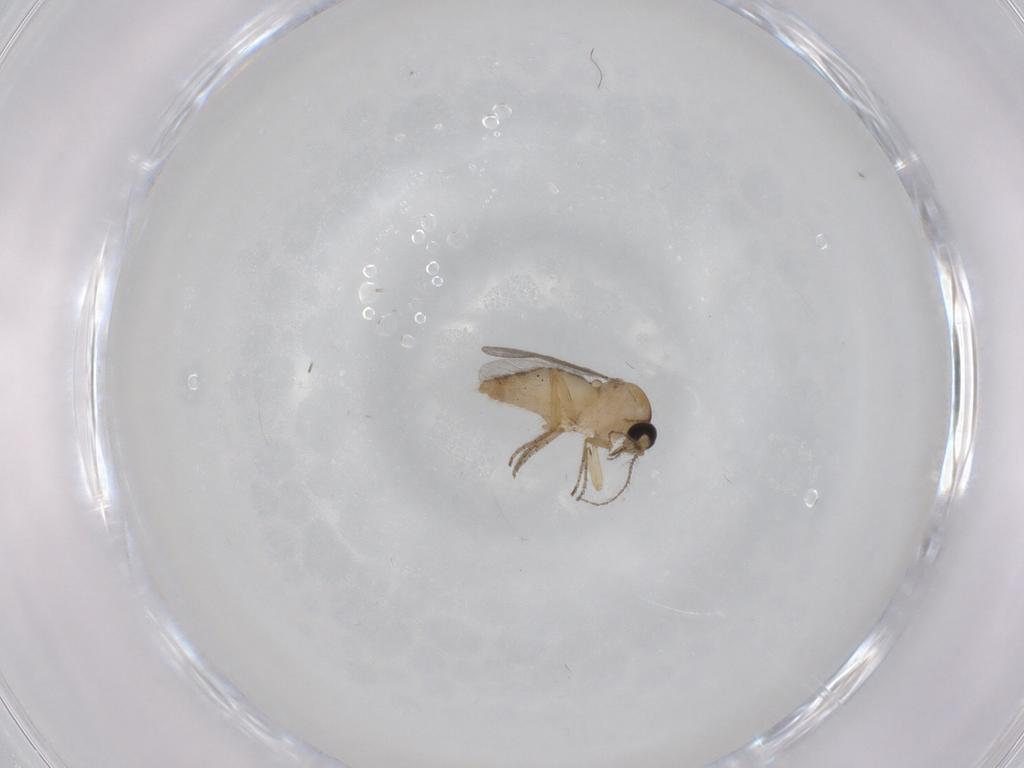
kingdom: Animalia
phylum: Arthropoda
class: Insecta
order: Diptera
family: Ceratopogonidae
